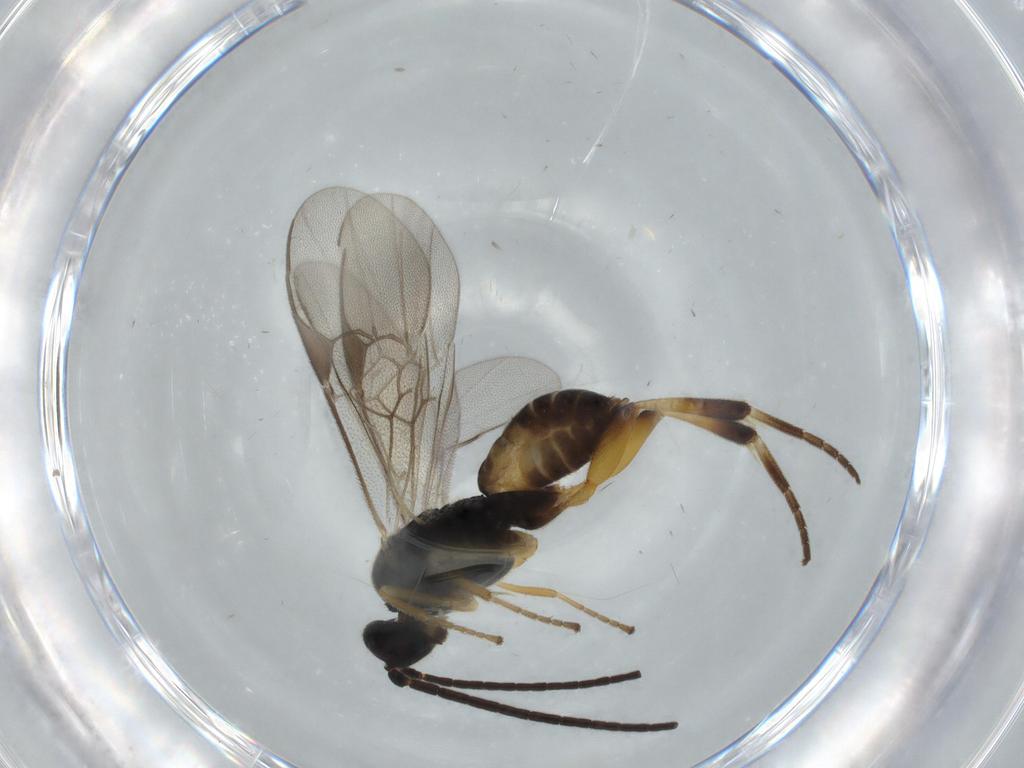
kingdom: Animalia
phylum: Arthropoda
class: Insecta
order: Hymenoptera
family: Braconidae
